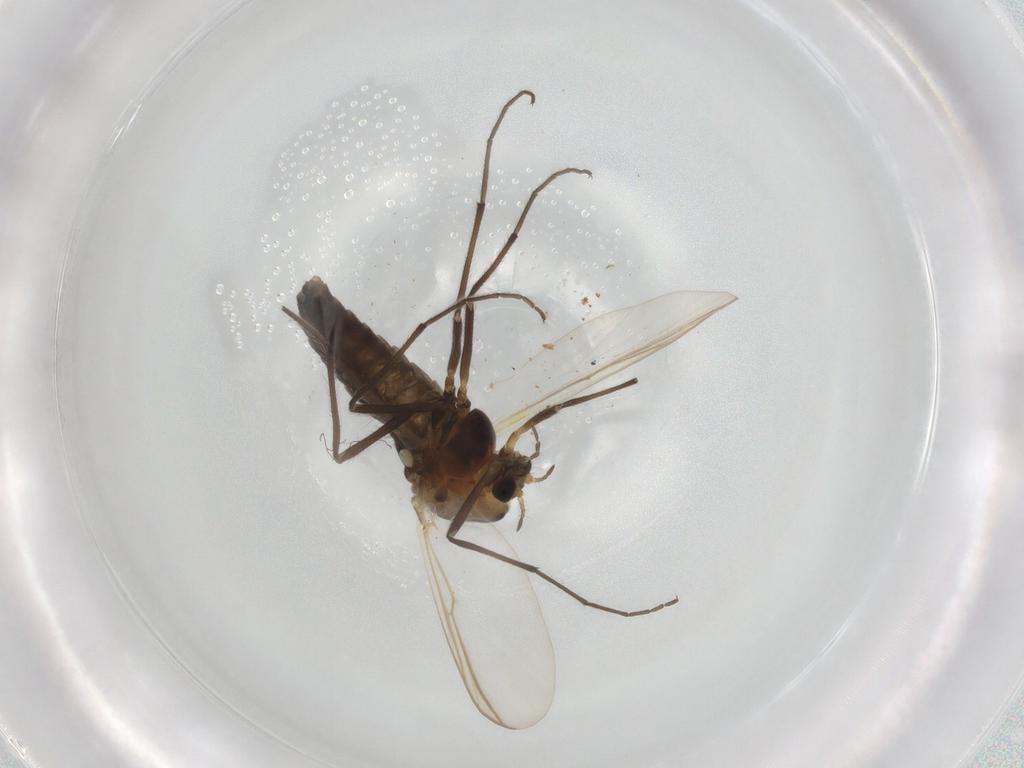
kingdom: Animalia
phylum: Arthropoda
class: Insecta
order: Diptera
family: Chironomidae
